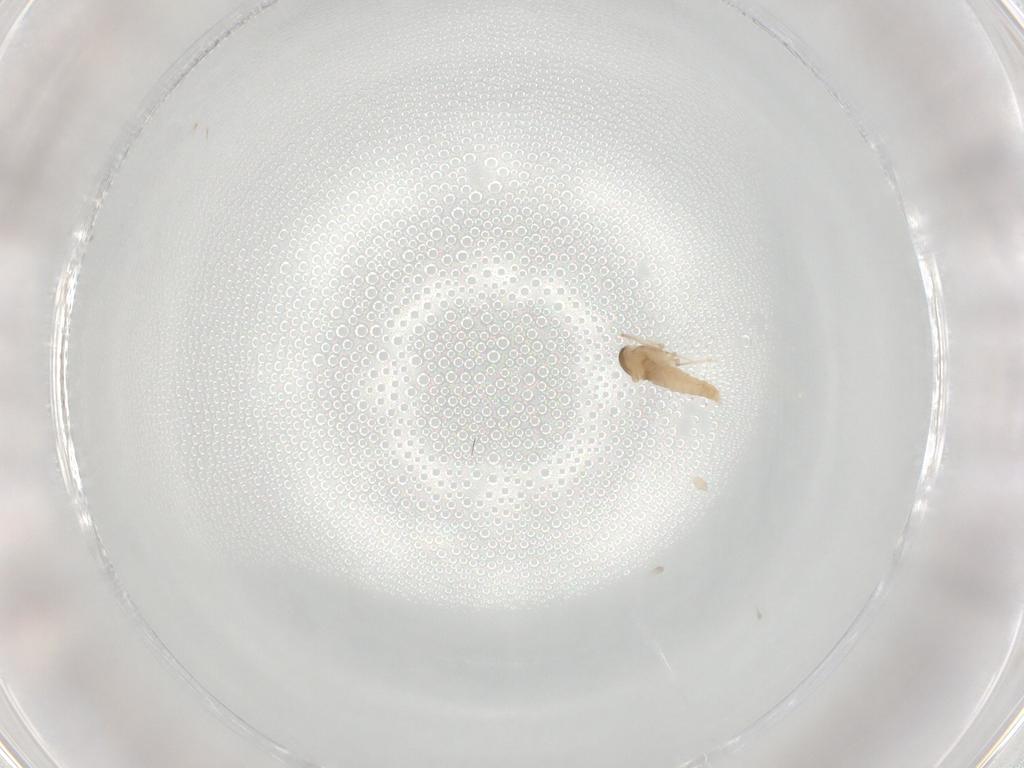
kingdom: Animalia
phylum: Arthropoda
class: Insecta
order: Diptera
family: Cecidomyiidae
